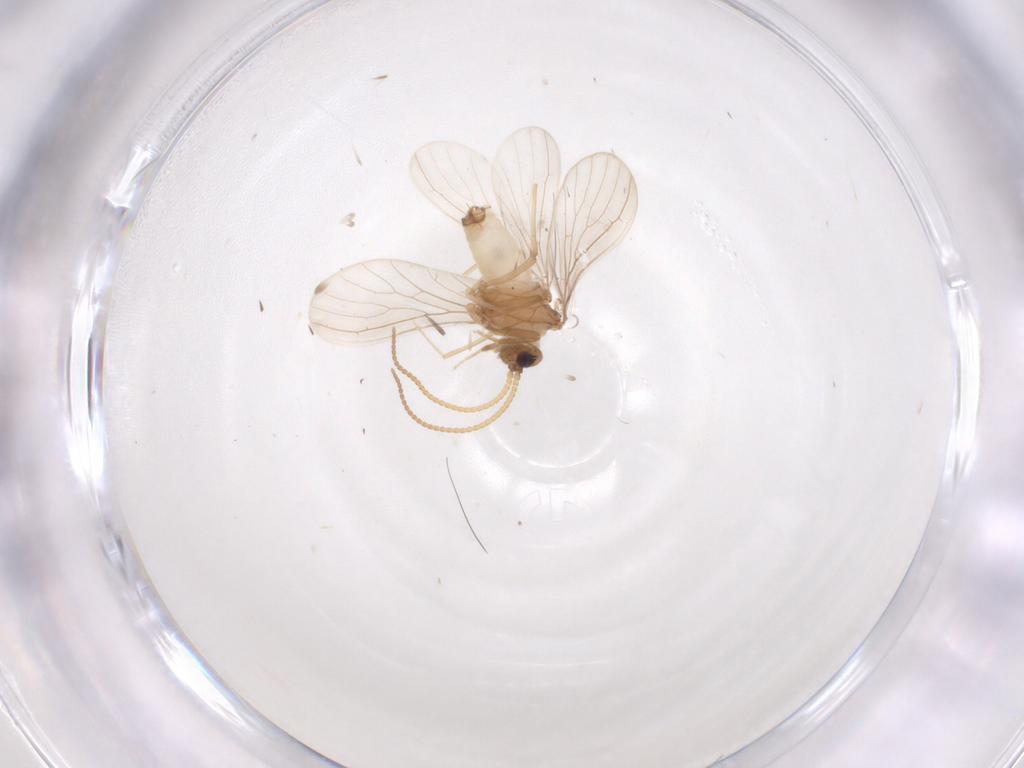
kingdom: Animalia
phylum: Arthropoda
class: Insecta
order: Neuroptera
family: Coniopterygidae
